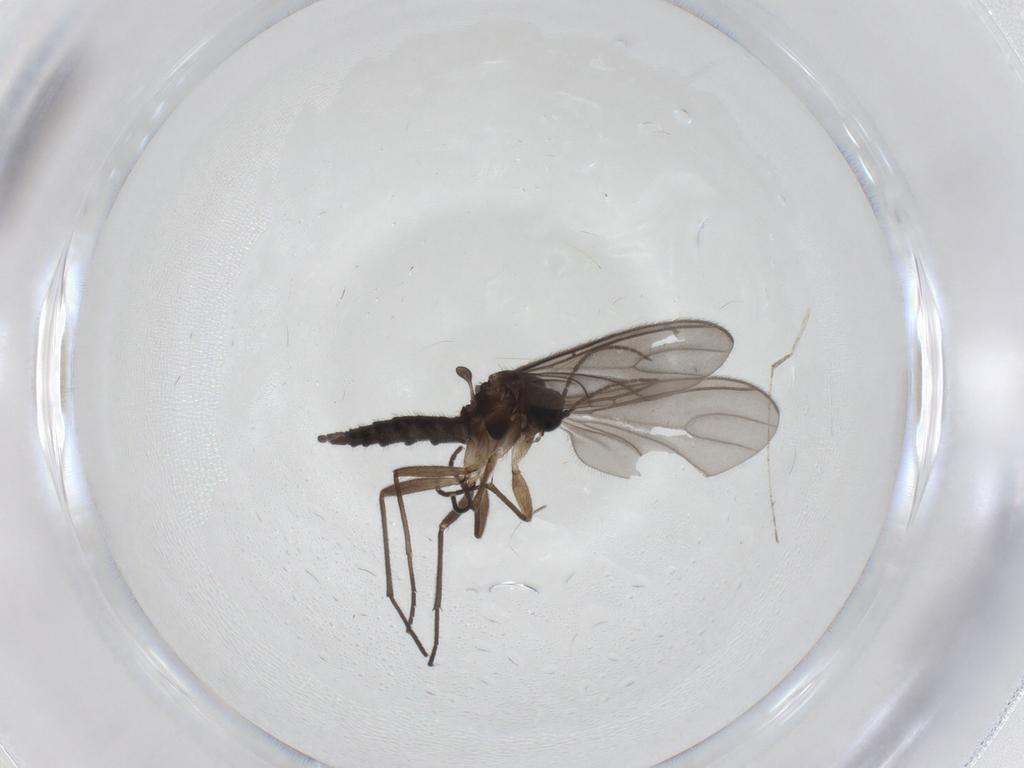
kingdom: Animalia
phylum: Arthropoda
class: Insecta
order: Diptera
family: Sciaridae
